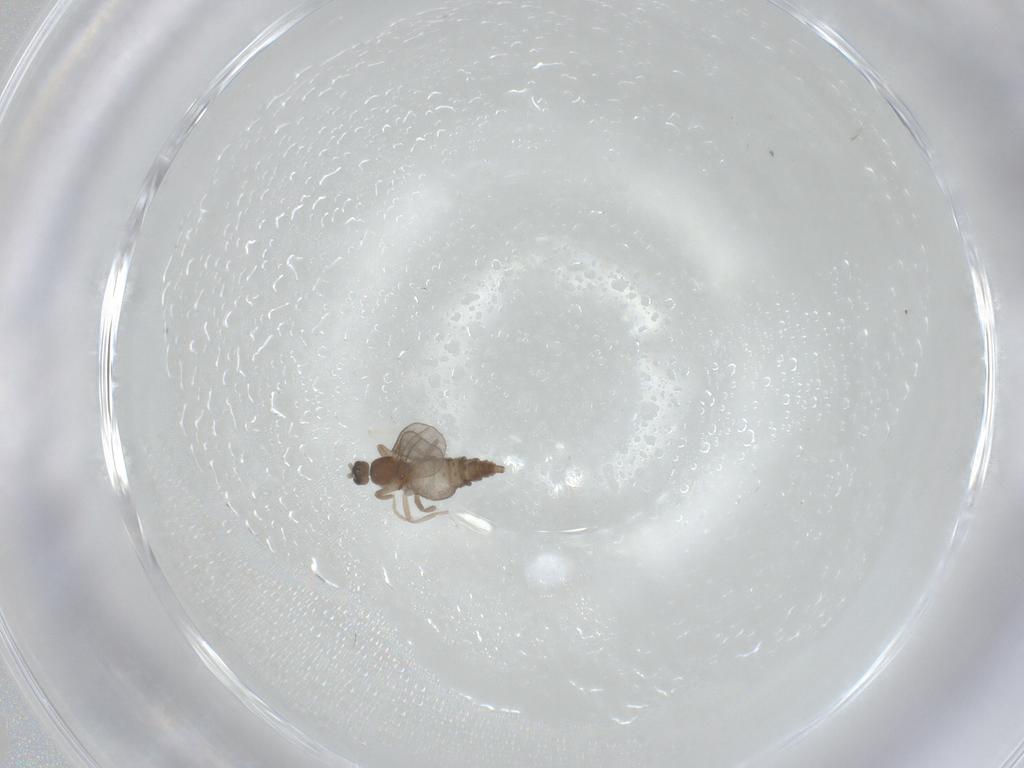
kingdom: Animalia
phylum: Arthropoda
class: Insecta
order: Diptera
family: Cecidomyiidae
